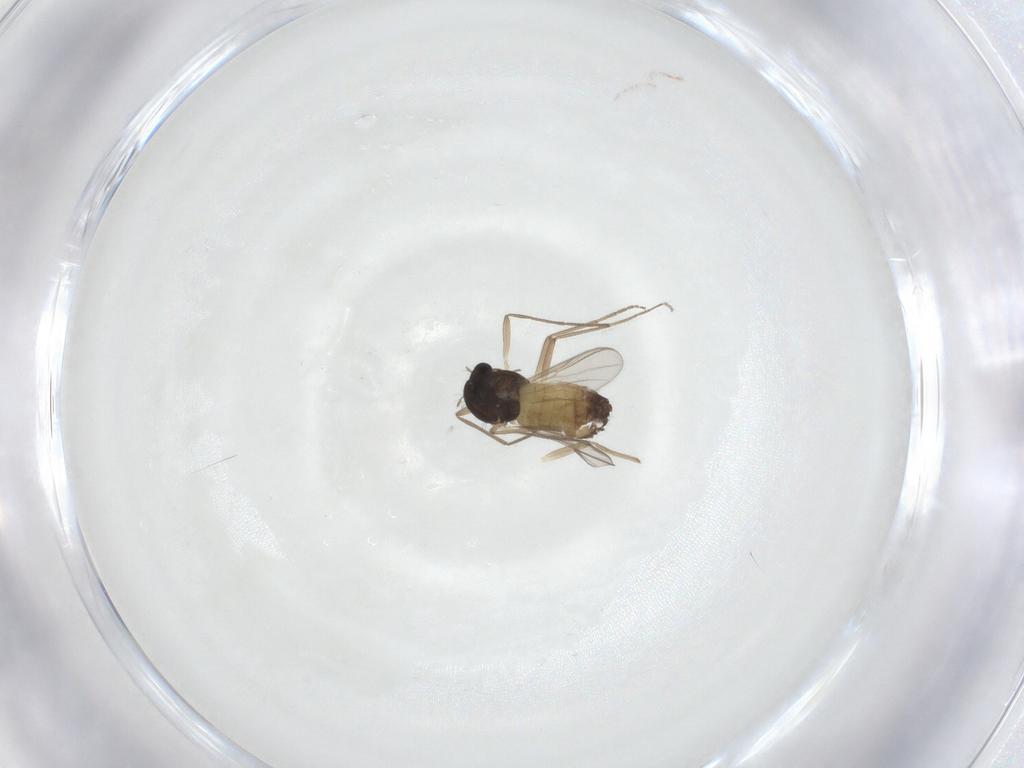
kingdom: Animalia
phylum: Arthropoda
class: Insecta
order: Diptera
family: Chironomidae
